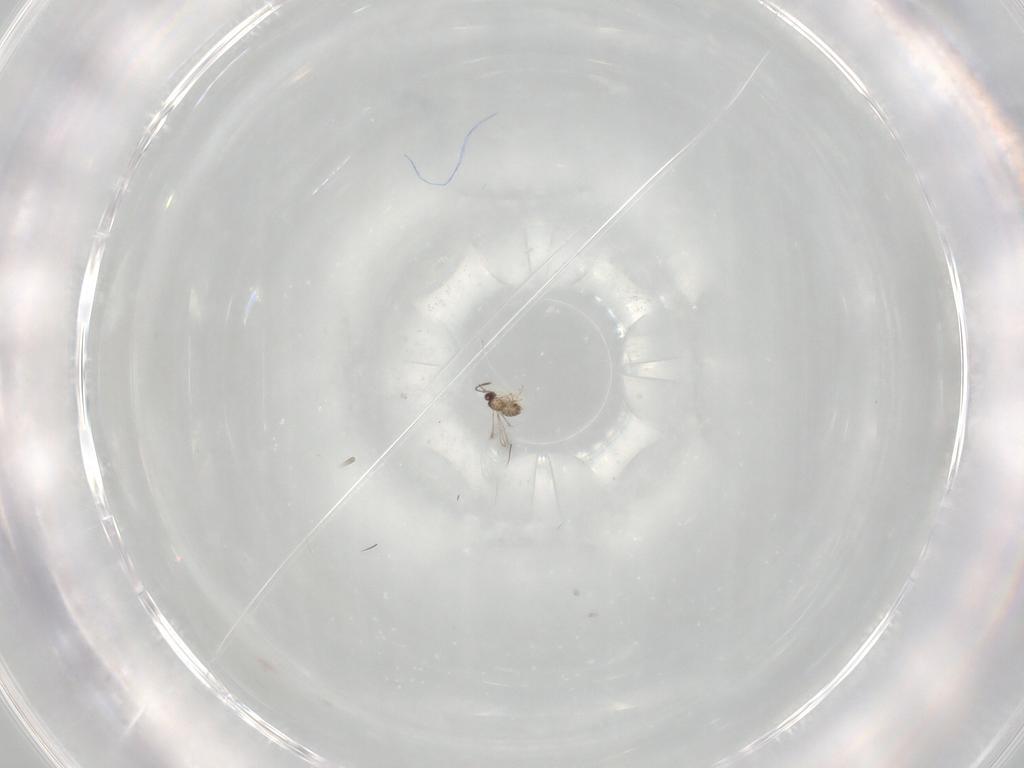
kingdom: Animalia
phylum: Arthropoda
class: Insecta
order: Hymenoptera
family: Mymaridae
